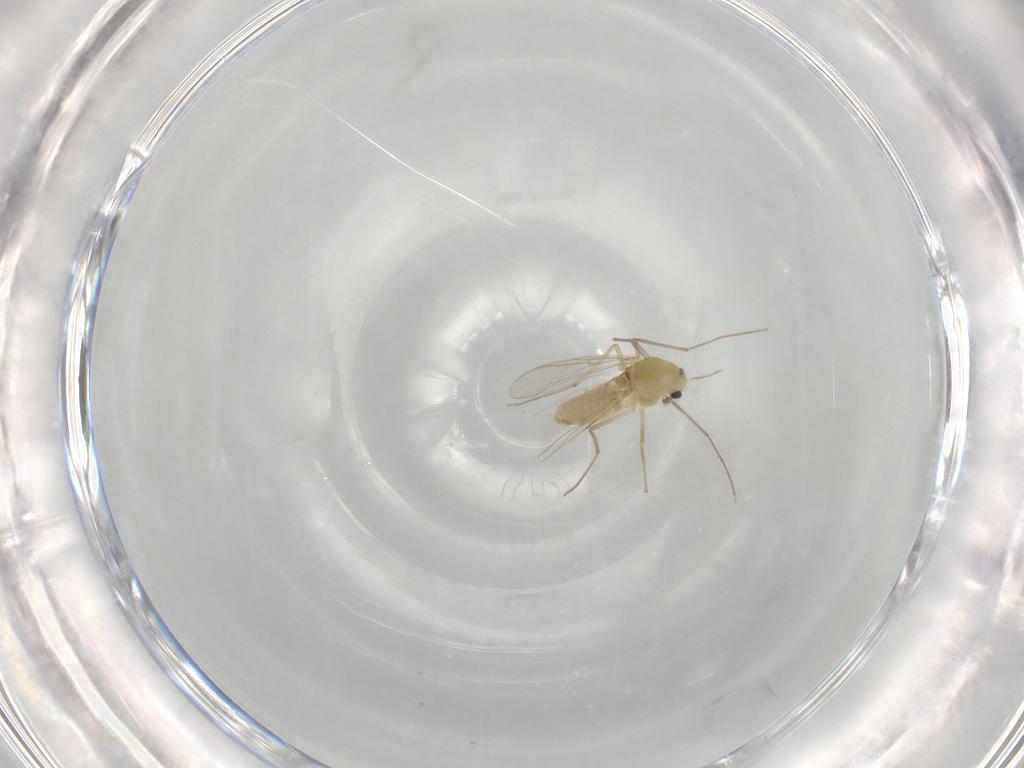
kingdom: Animalia
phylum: Arthropoda
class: Insecta
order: Diptera
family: Chironomidae
